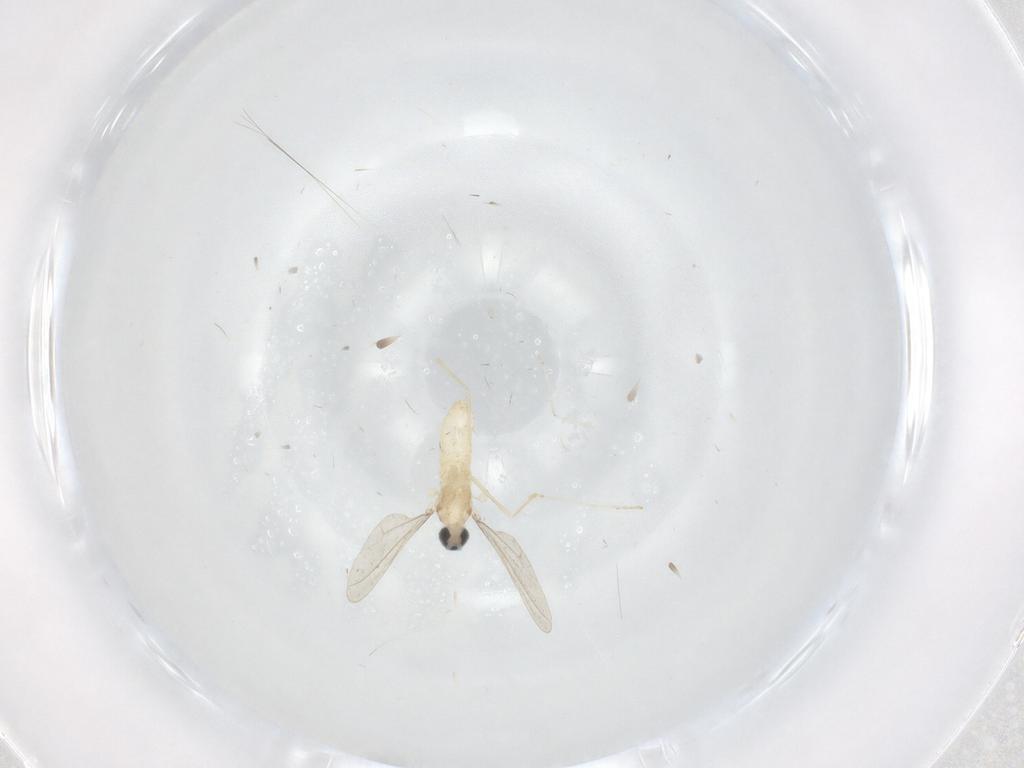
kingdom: Animalia
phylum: Arthropoda
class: Insecta
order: Diptera
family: Cecidomyiidae
